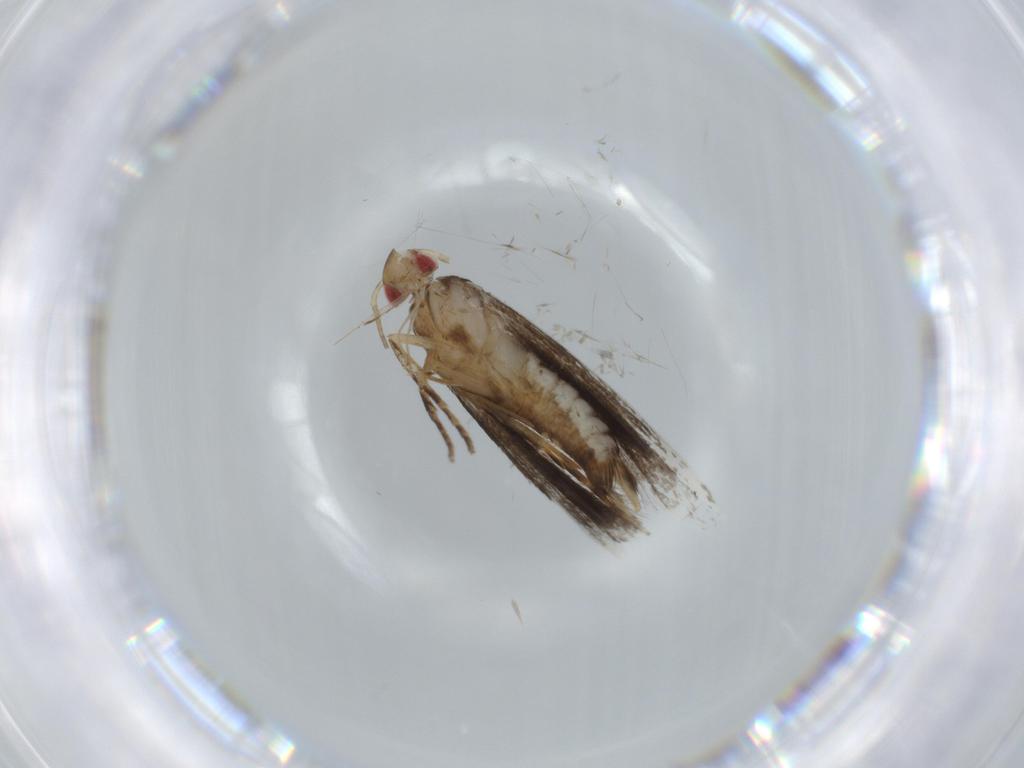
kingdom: Animalia
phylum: Arthropoda
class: Insecta
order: Lepidoptera
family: Gelechiidae
